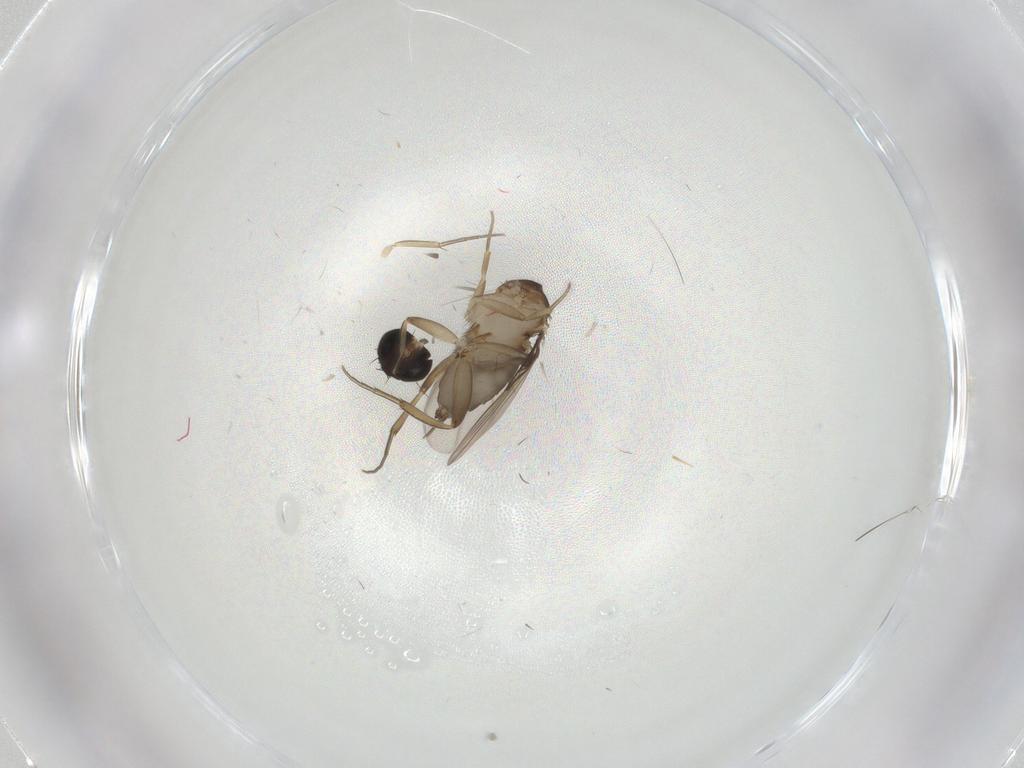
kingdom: Animalia
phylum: Arthropoda
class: Insecta
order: Diptera
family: Phoridae
